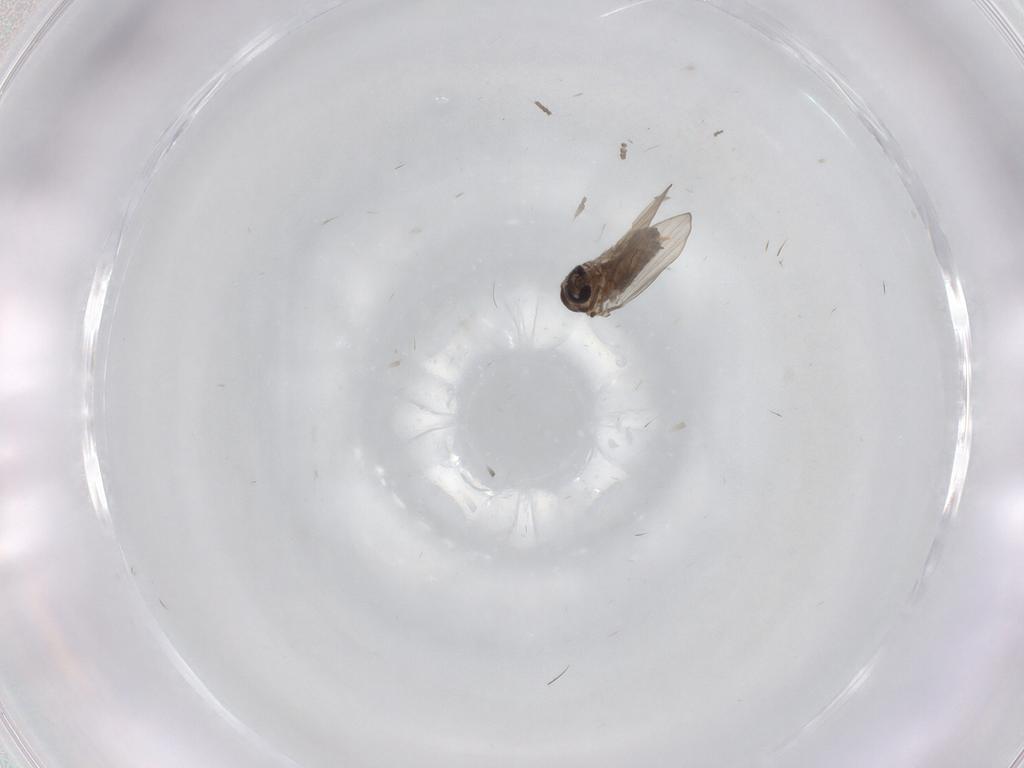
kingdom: Animalia
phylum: Arthropoda
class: Insecta
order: Diptera
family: Cecidomyiidae
